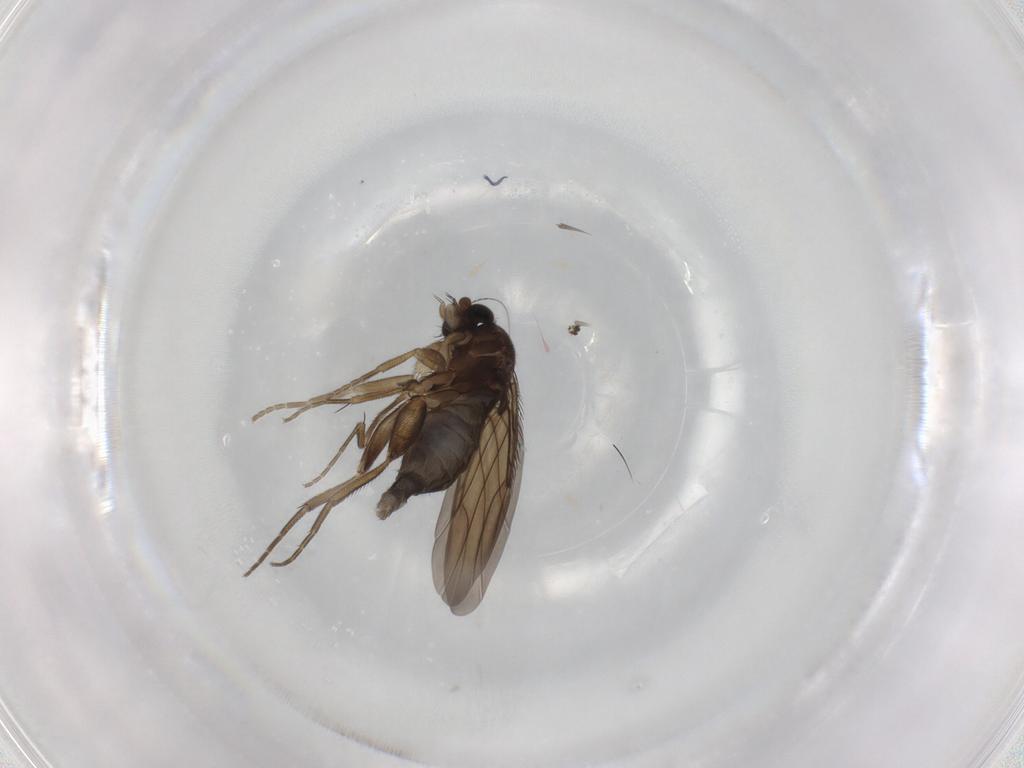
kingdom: Animalia
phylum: Arthropoda
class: Insecta
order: Diptera
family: Phoridae
